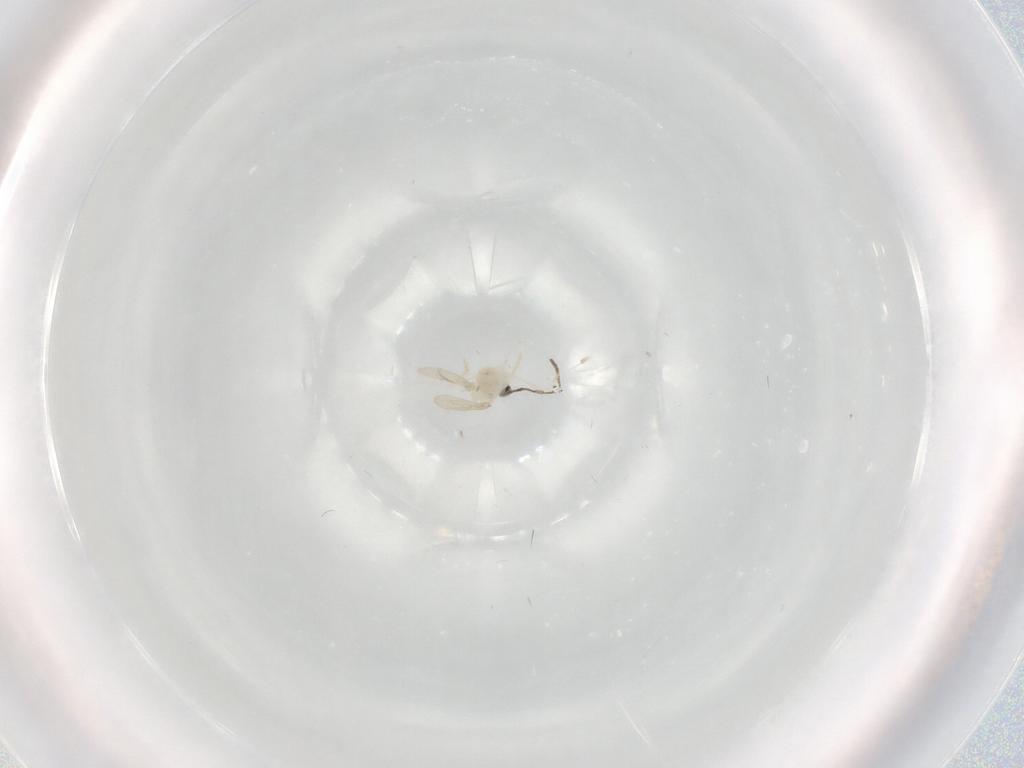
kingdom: Animalia
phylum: Arthropoda
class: Insecta
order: Diptera
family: Cecidomyiidae
